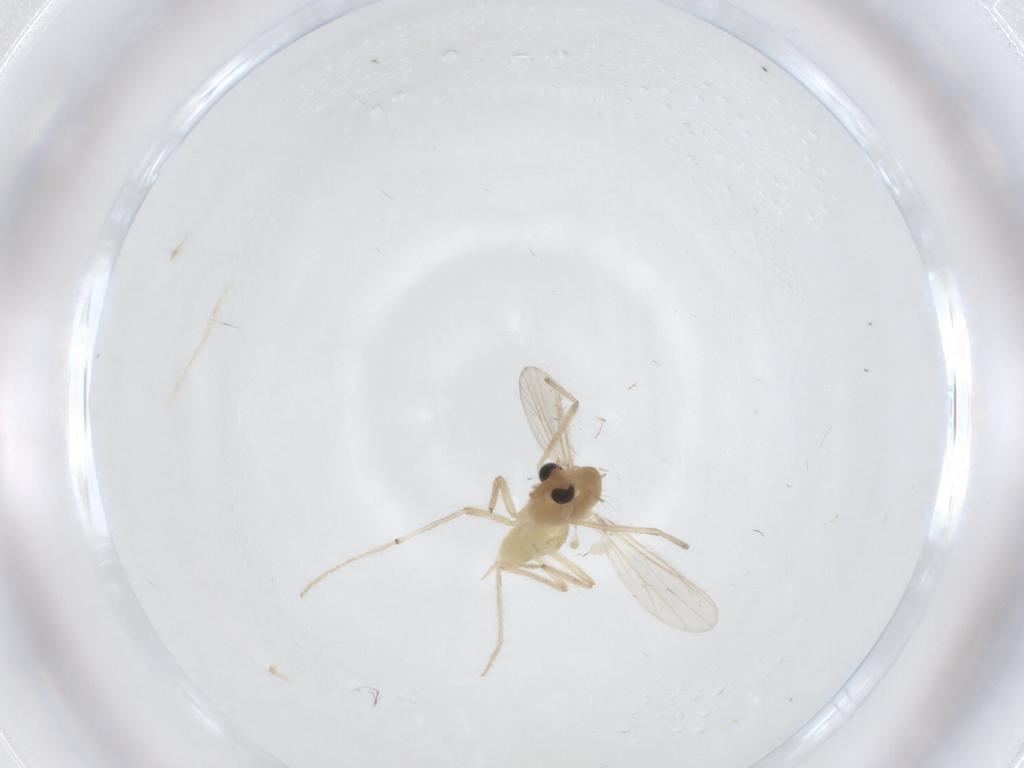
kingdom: Animalia
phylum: Arthropoda
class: Insecta
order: Diptera
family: Chironomidae
